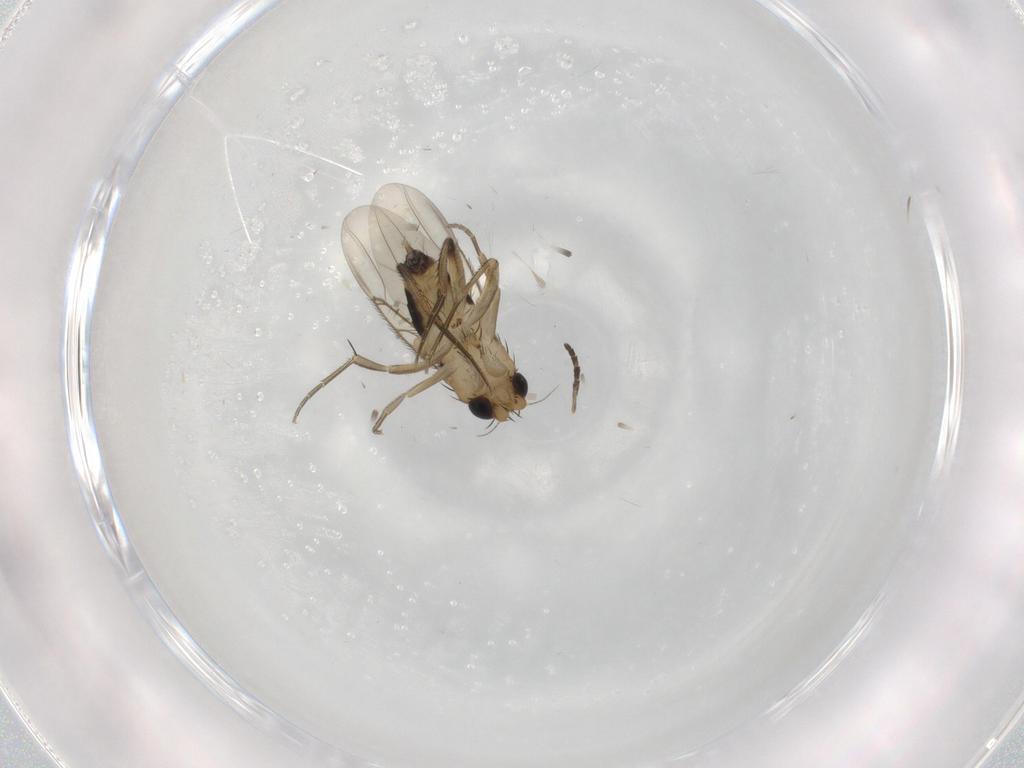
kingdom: Animalia
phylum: Arthropoda
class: Insecta
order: Diptera
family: Phoridae
